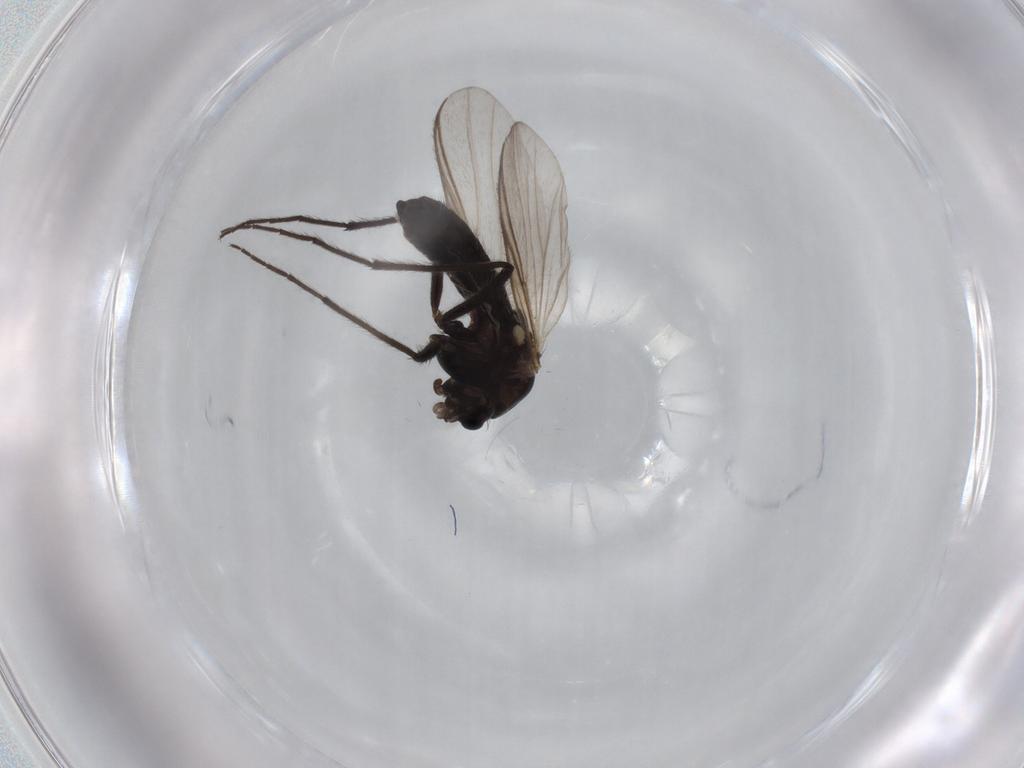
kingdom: Animalia
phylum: Arthropoda
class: Insecta
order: Diptera
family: Chironomidae
